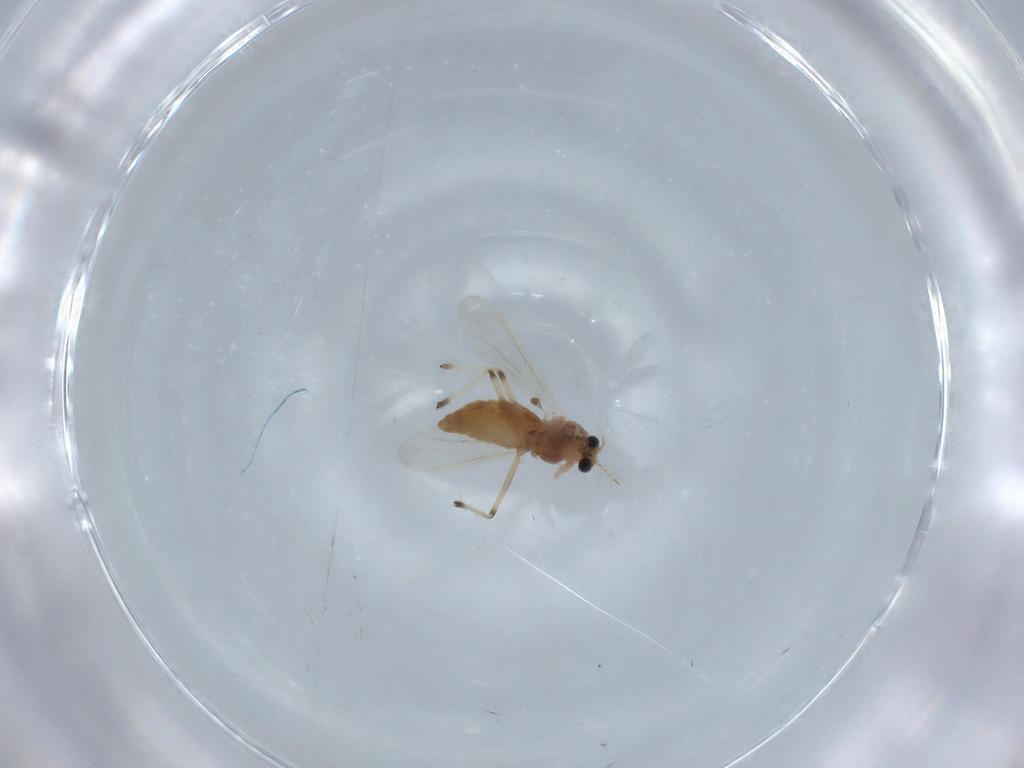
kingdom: Animalia
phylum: Arthropoda
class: Insecta
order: Diptera
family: Chironomidae
